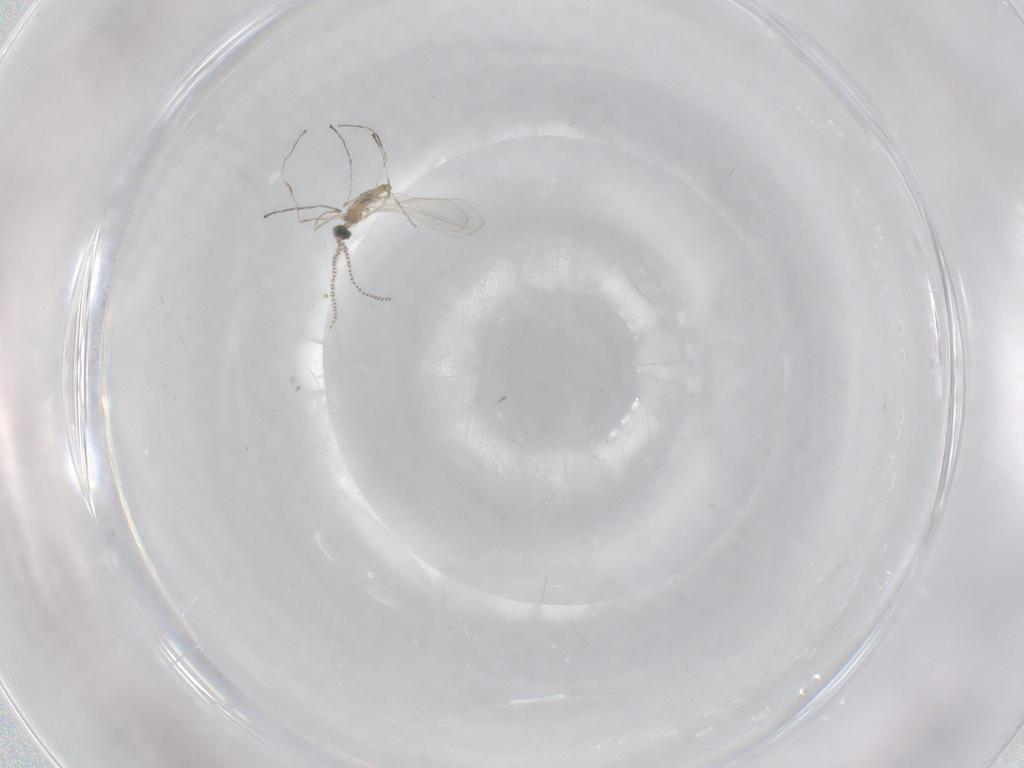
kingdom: Animalia
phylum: Arthropoda
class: Insecta
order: Diptera
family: Cecidomyiidae
